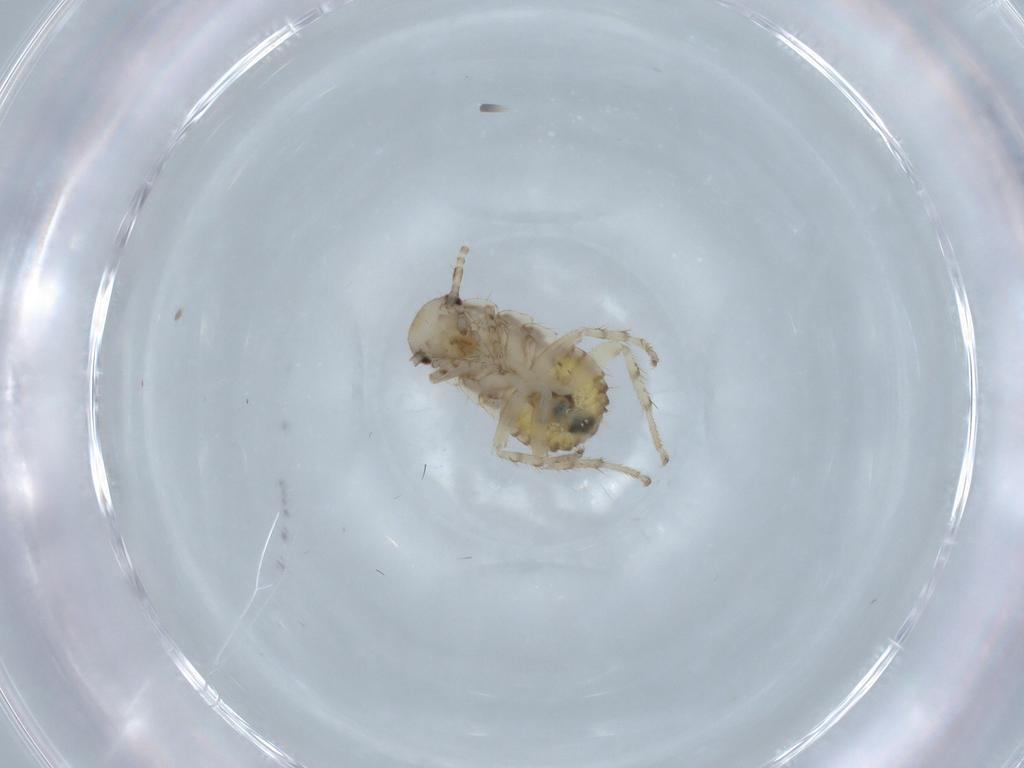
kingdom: Animalia
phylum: Arthropoda
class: Insecta
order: Blattodea
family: Ectobiidae
